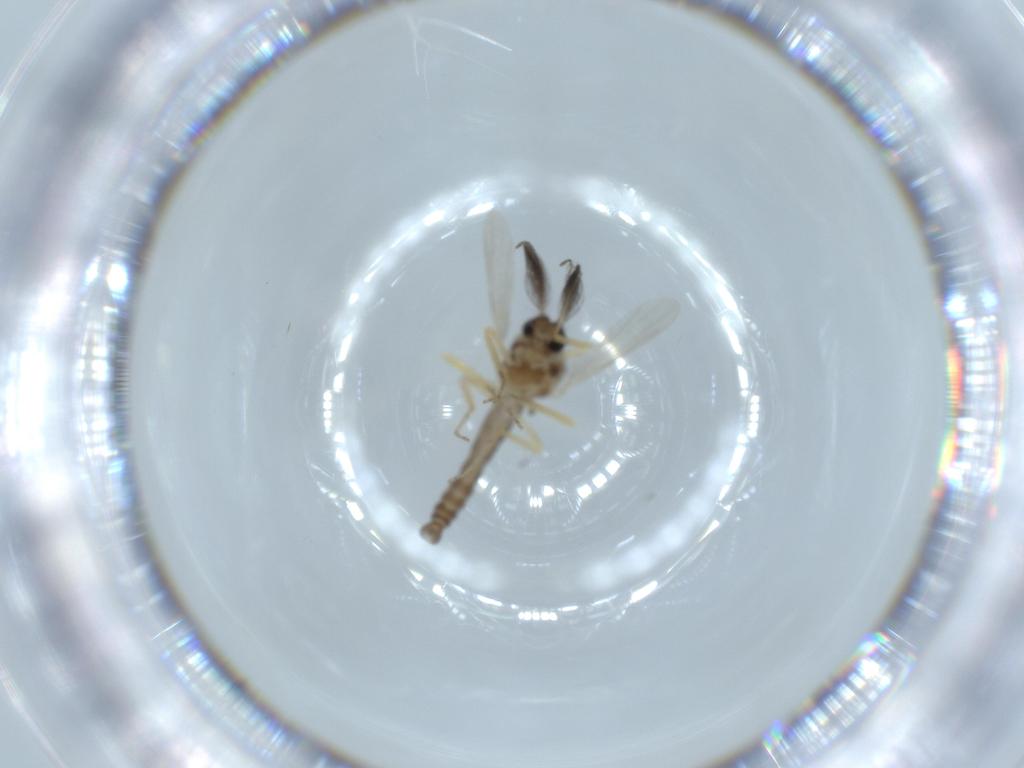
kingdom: Animalia
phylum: Arthropoda
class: Insecta
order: Diptera
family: Ceratopogonidae
